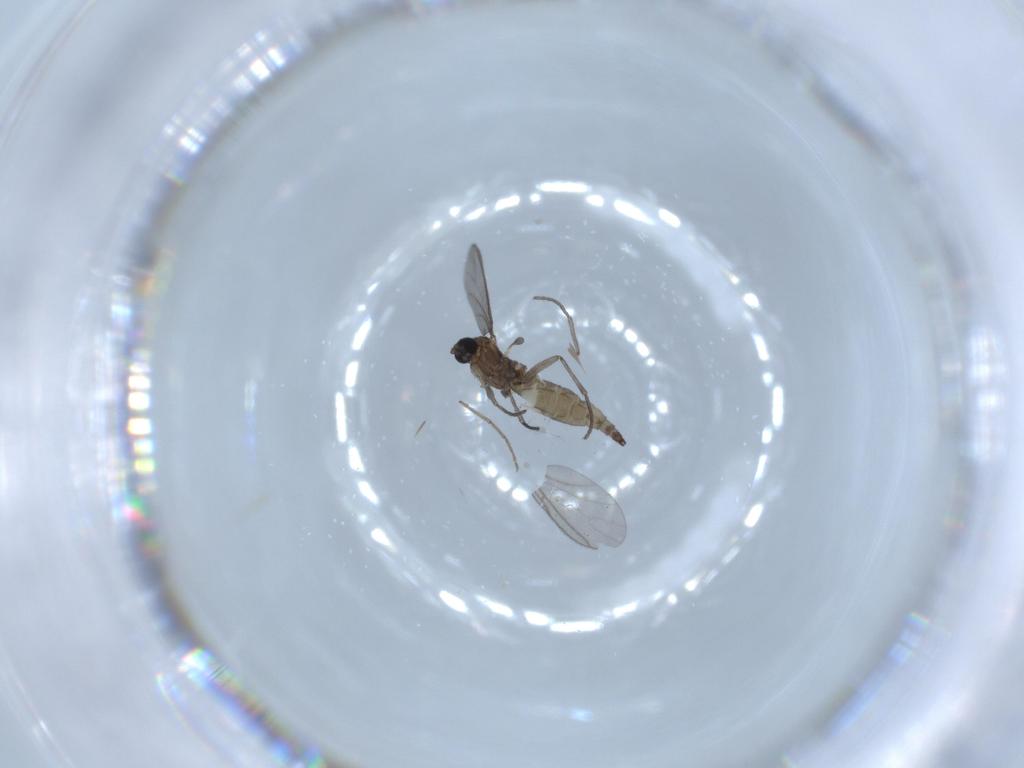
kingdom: Animalia
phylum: Arthropoda
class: Insecta
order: Diptera
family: Sciaridae
